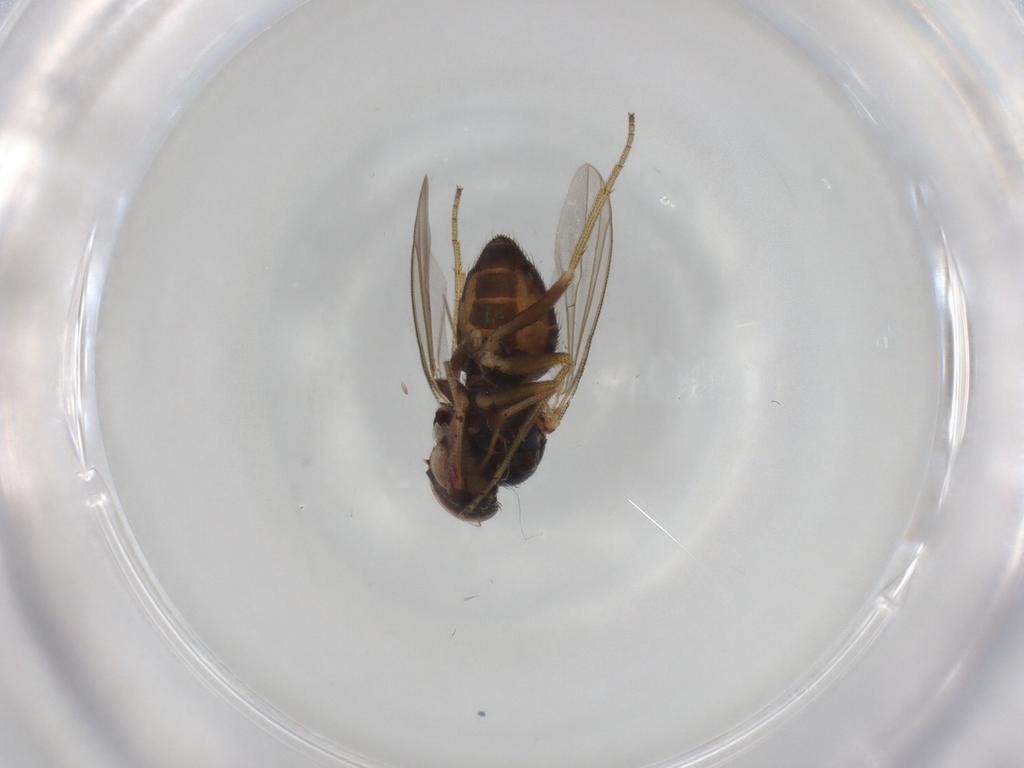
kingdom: Animalia
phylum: Arthropoda
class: Insecta
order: Diptera
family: Dolichopodidae
